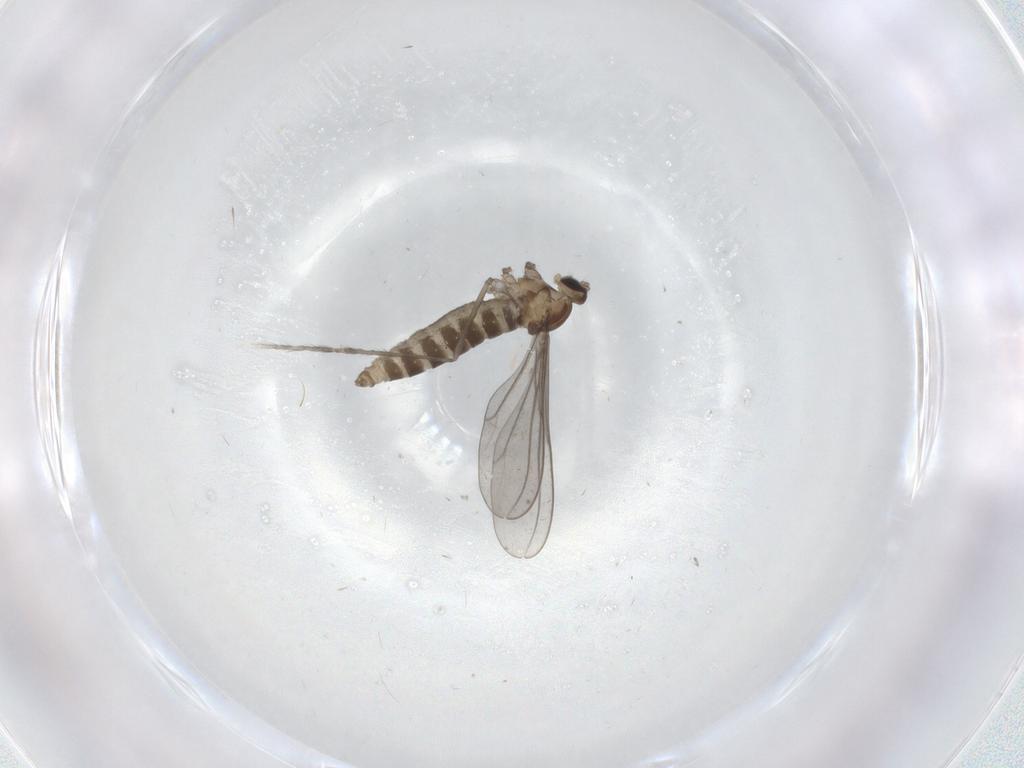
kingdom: Animalia
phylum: Arthropoda
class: Insecta
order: Diptera
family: Cecidomyiidae
